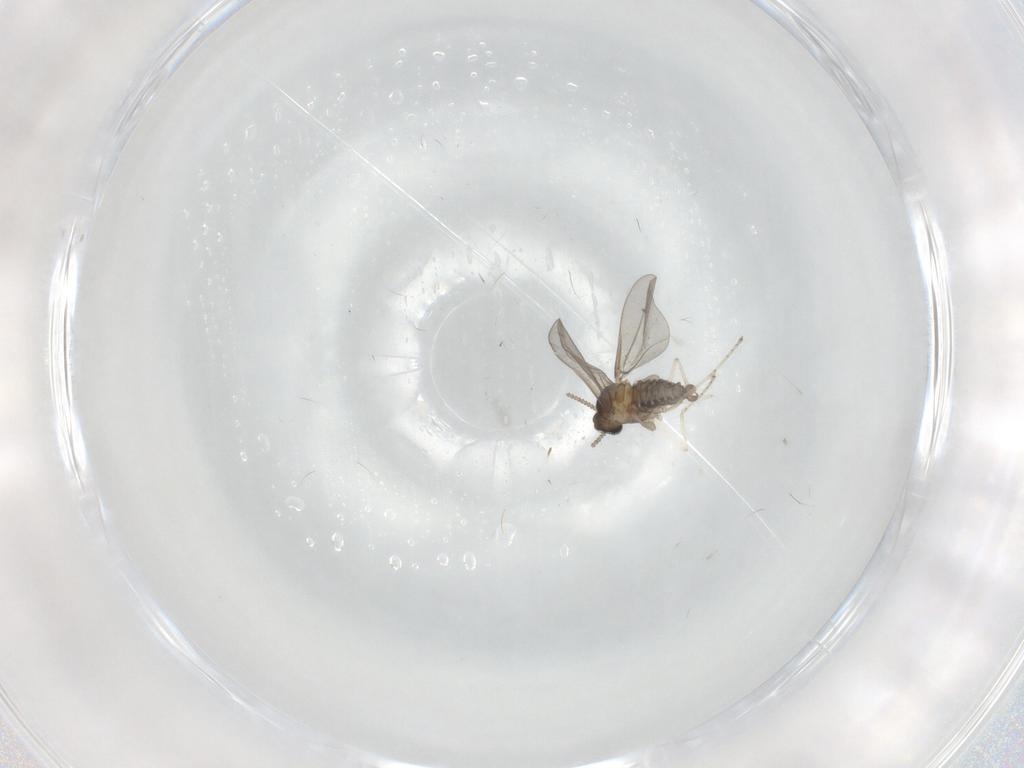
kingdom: Animalia
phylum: Arthropoda
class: Insecta
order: Diptera
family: Cecidomyiidae
